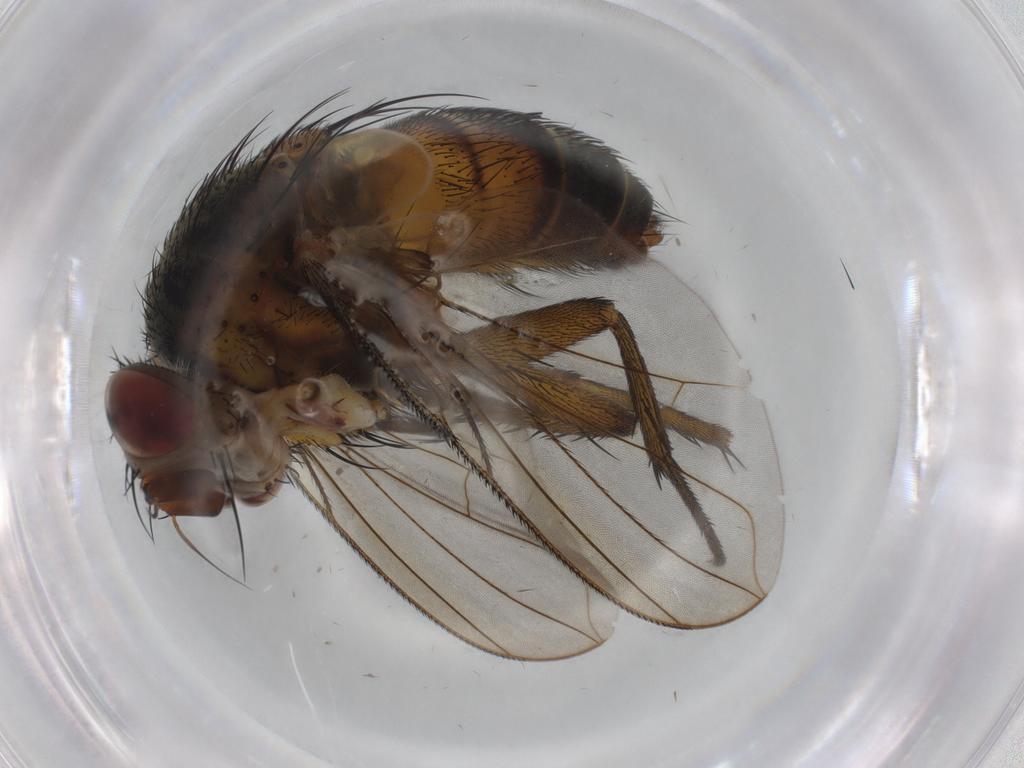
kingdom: Animalia
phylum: Arthropoda
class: Insecta
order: Diptera
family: Tachinidae
